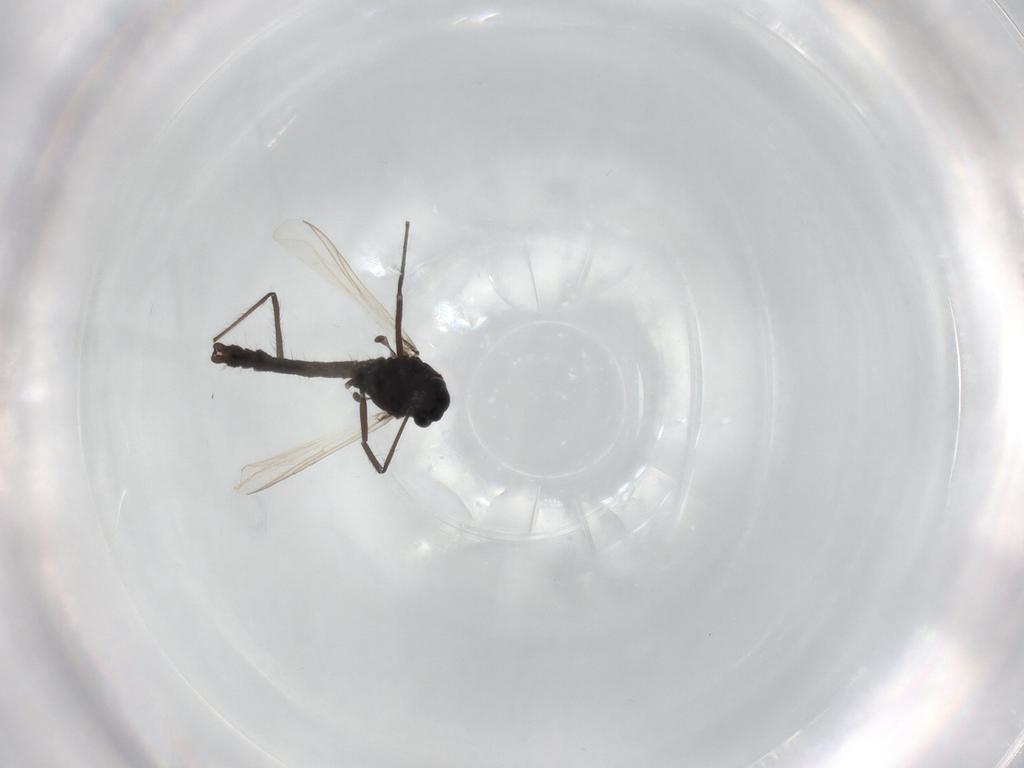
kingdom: Animalia
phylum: Arthropoda
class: Insecta
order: Diptera
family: Chironomidae
